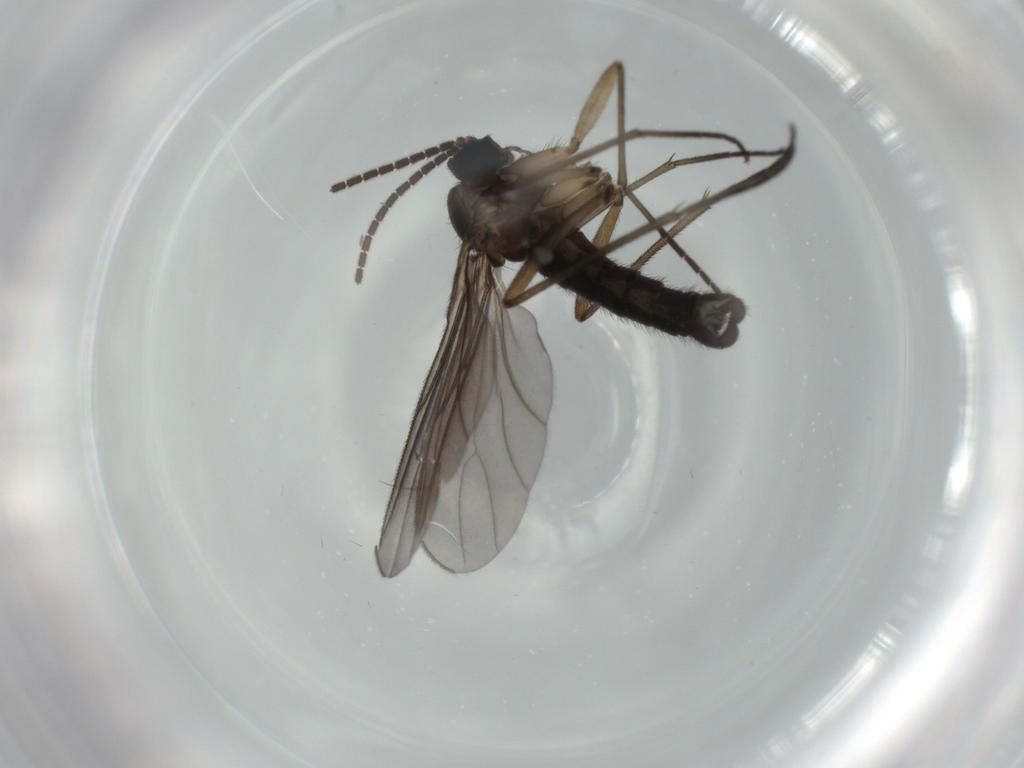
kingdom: Animalia
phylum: Arthropoda
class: Insecta
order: Diptera
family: Sciaridae
